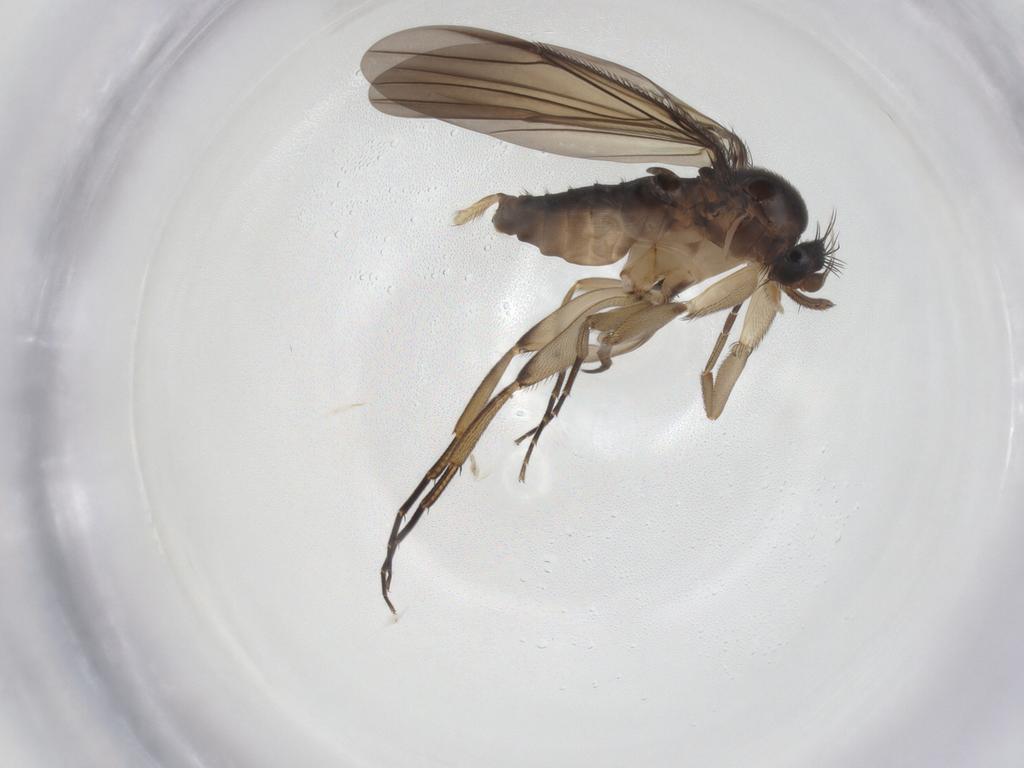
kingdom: Animalia
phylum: Arthropoda
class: Insecta
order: Diptera
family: Phoridae
